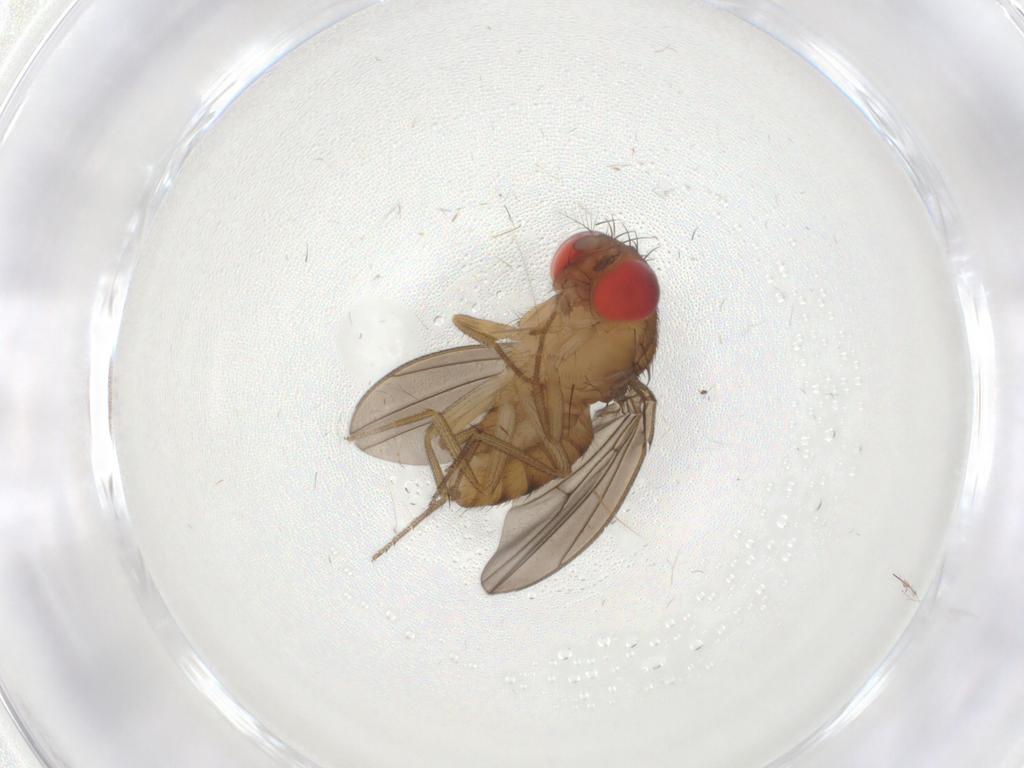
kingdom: Animalia
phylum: Arthropoda
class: Insecta
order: Diptera
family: Drosophilidae
